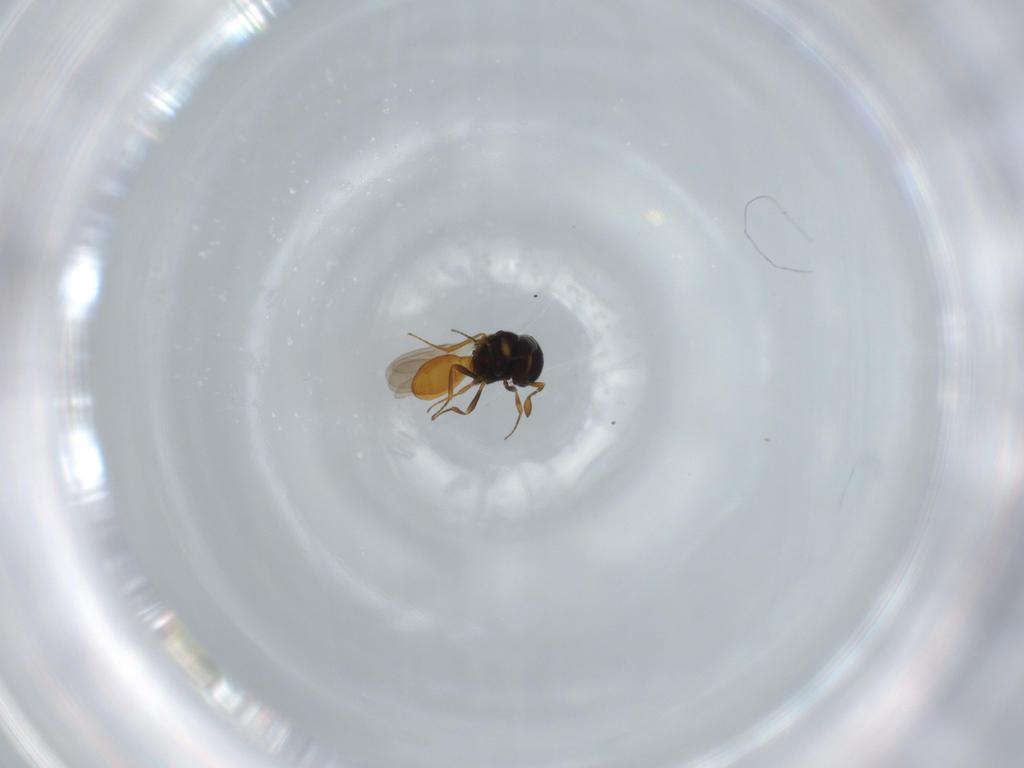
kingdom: Animalia
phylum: Arthropoda
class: Insecta
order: Hymenoptera
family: Scelionidae
